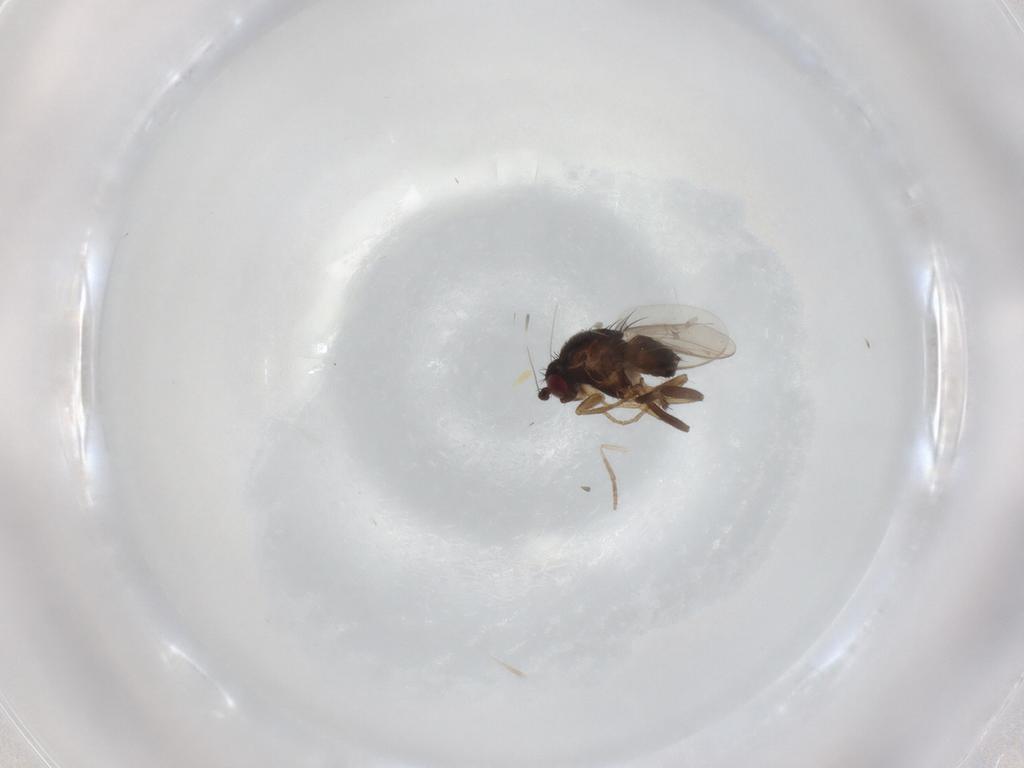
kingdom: Animalia
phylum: Arthropoda
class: Insecta
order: Diptera
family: Sphaeroceridae
